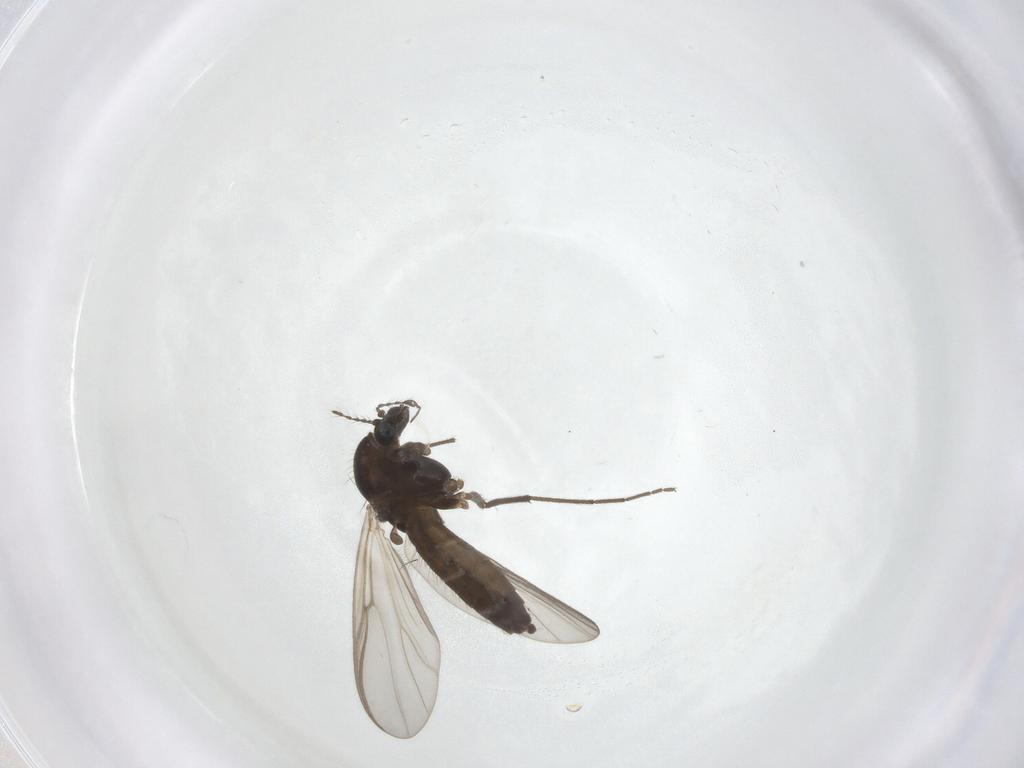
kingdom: Animalia
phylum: Arthropoda
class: Insecta
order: Diptera
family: Chironomidae
